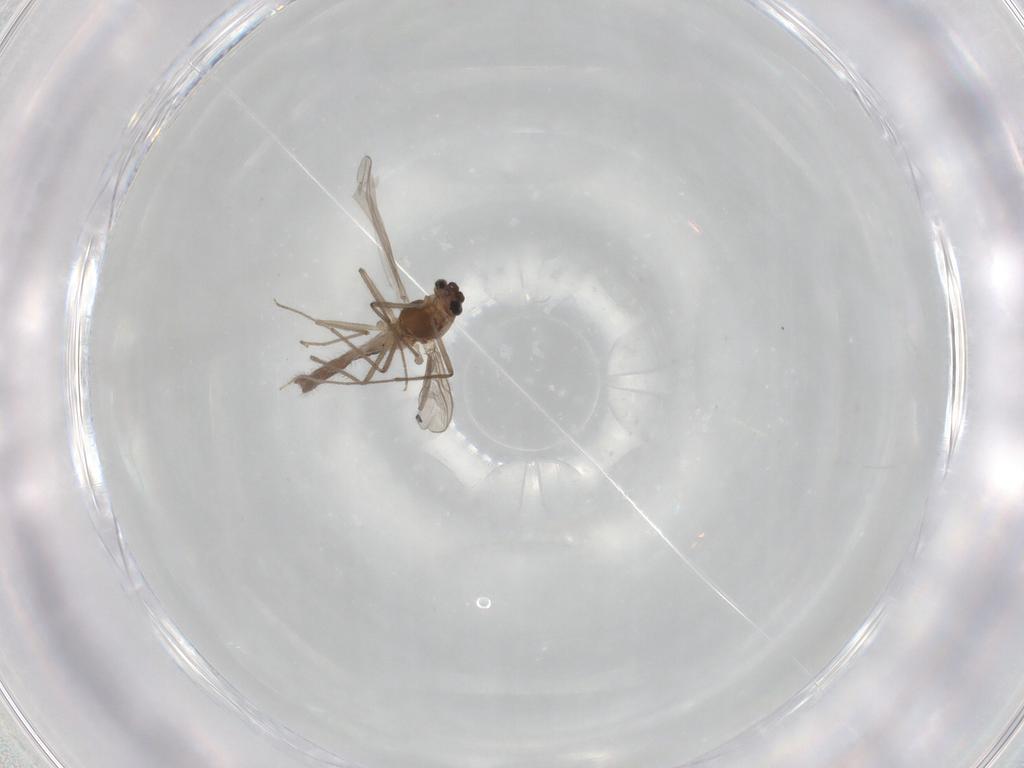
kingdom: Animalia
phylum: Arthropoda
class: Insecta
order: Diptera
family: Chironomidae
